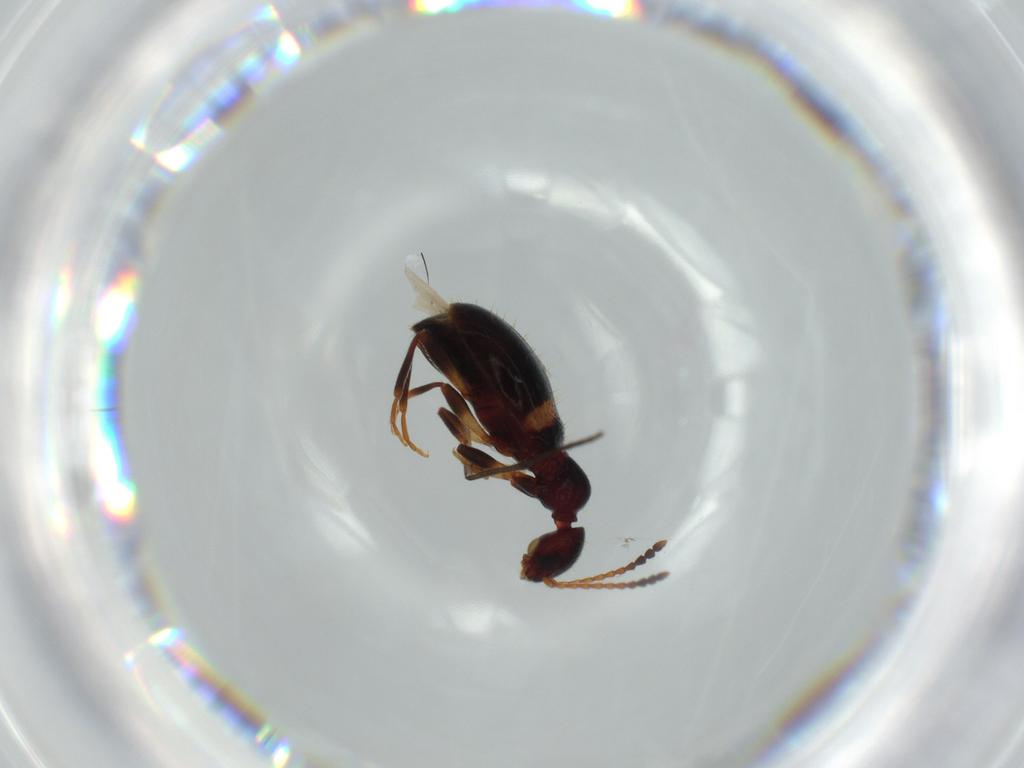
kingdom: Animalia
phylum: Arthropoda
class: Insecta
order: Coleoptera
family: Anthicidae
